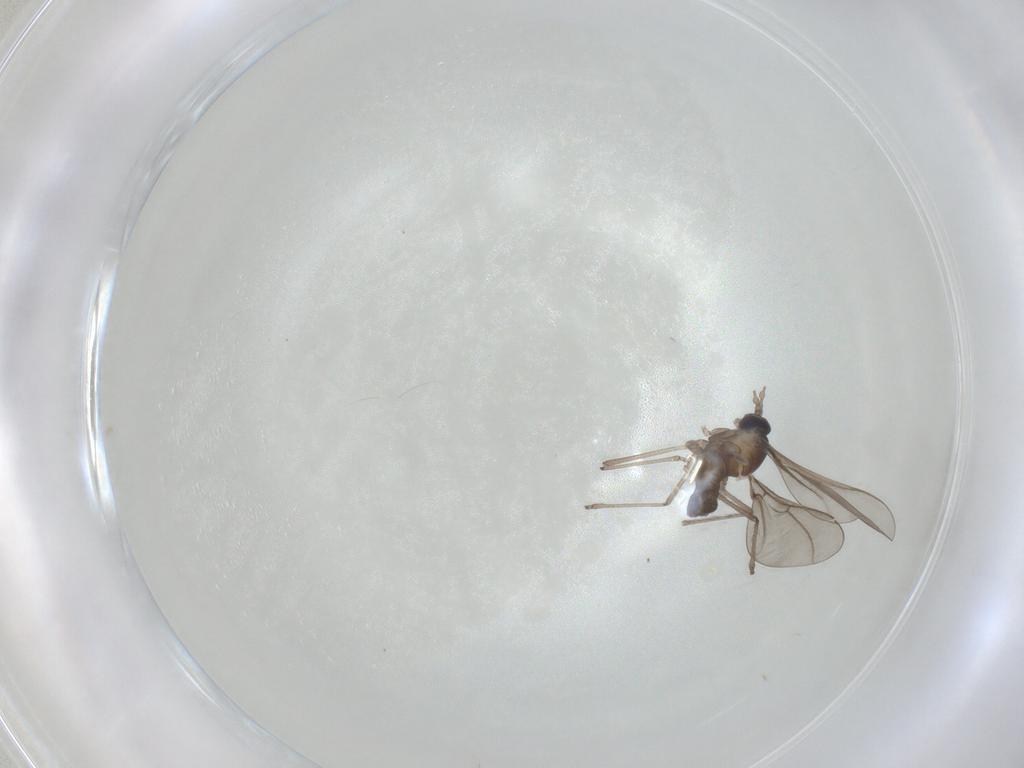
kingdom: Animalia
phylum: Arthropoda
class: Insecta
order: Diptera
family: Cecidomyiidae
